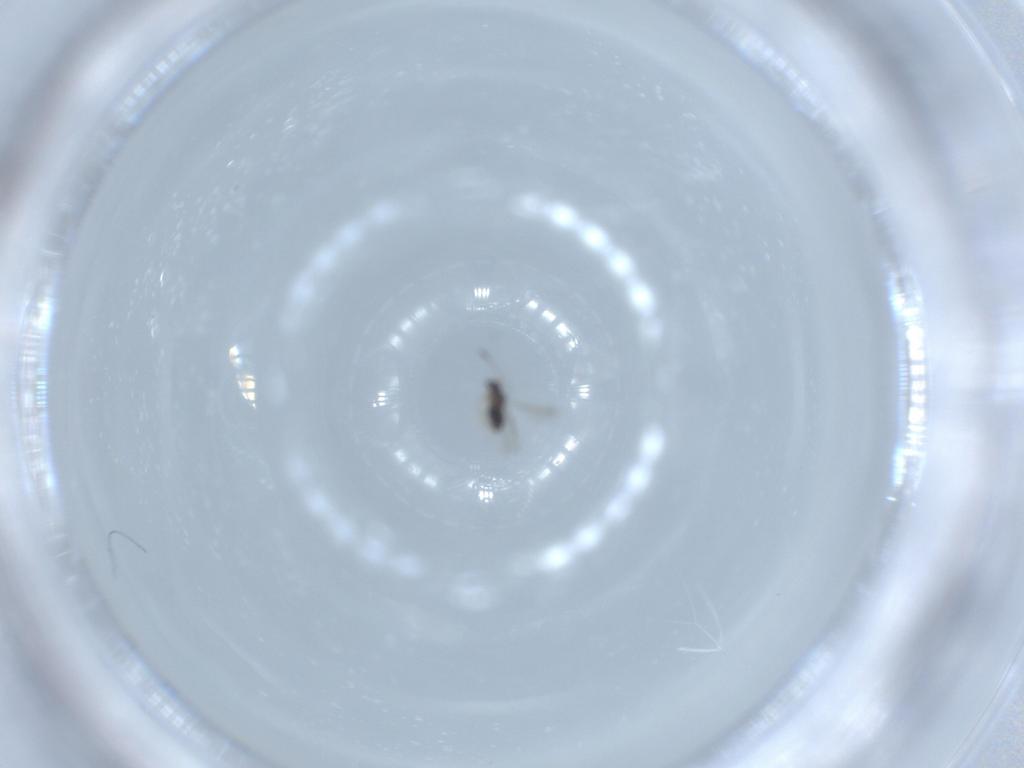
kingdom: Animalia
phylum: Arthropoda
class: Insecta
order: Hymenoptera
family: Mymaridae
